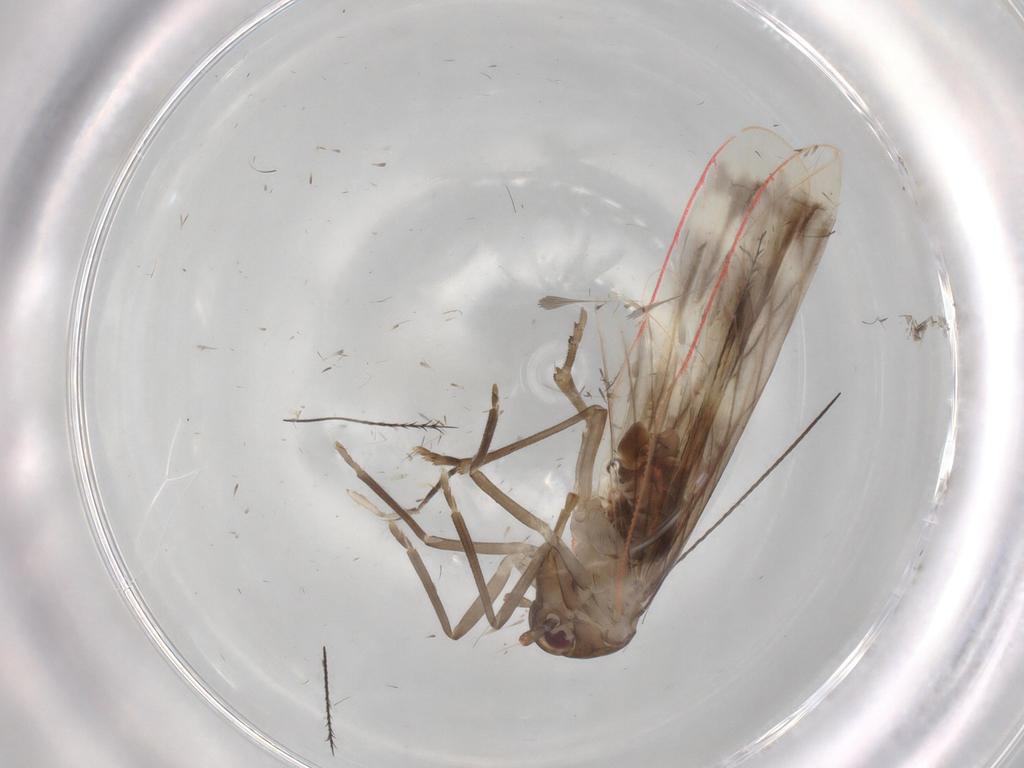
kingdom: Animalia
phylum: Arthropoda
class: Insecta
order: Hemiptera
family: Derbidae
